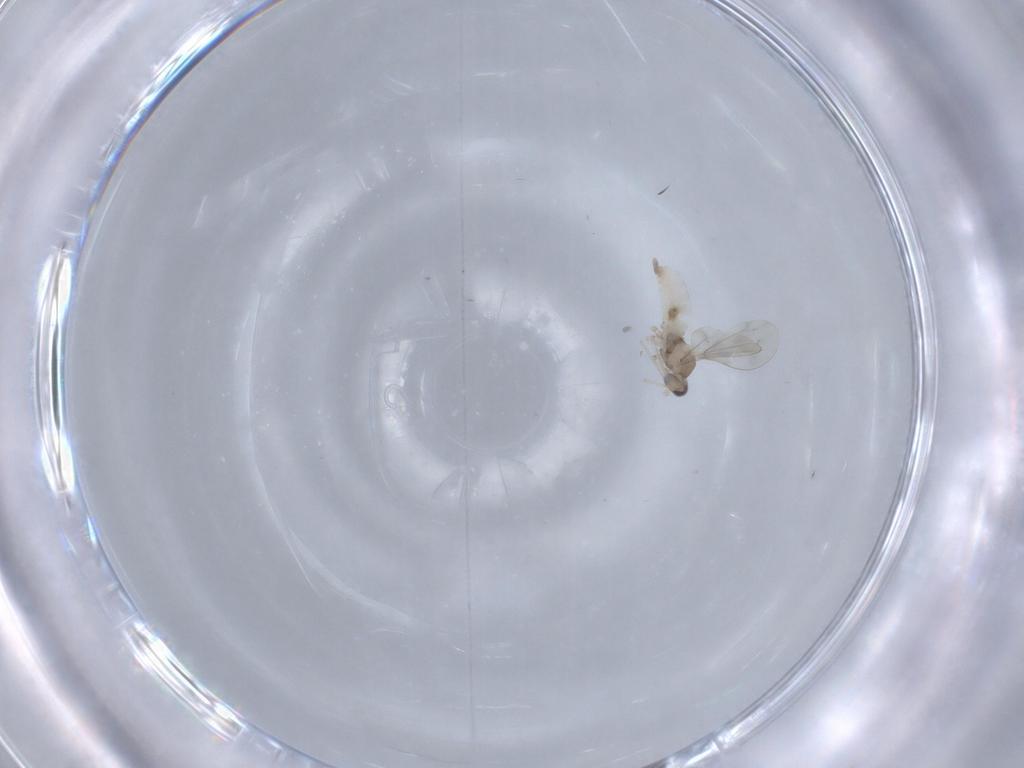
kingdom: Animalia
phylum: Arthropoda
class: Insecta
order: Diptera
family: Cecidomyiidae
